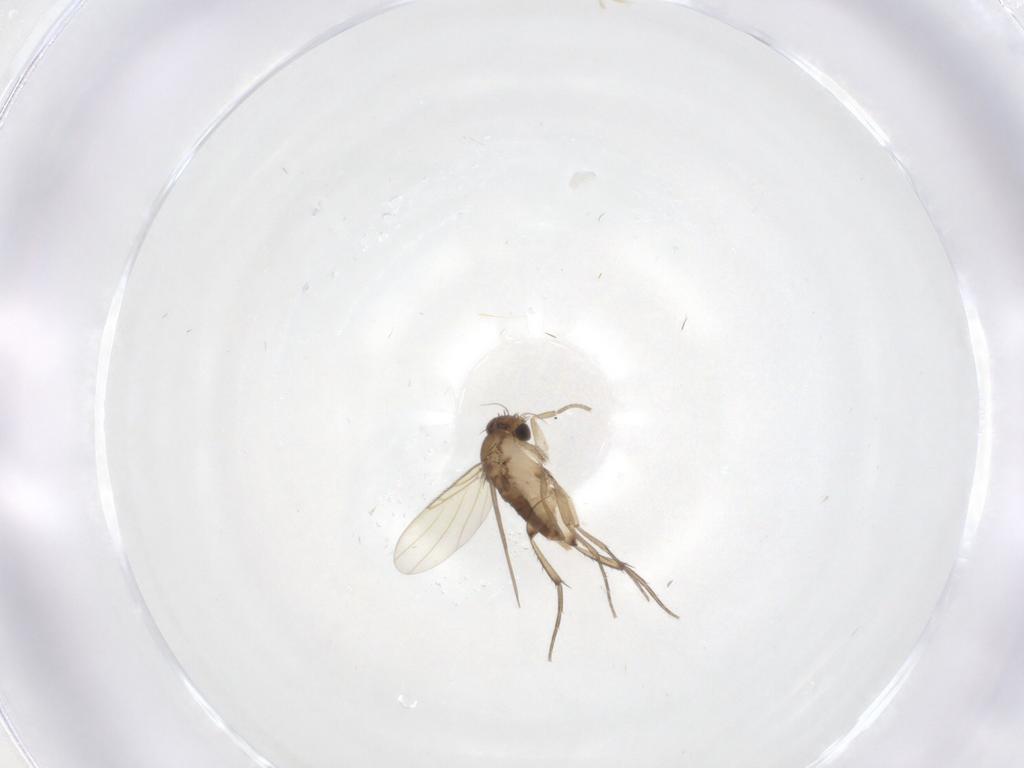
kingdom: Animalia
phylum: Arthropoda
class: Insecta
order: Diptera
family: Phoridae
